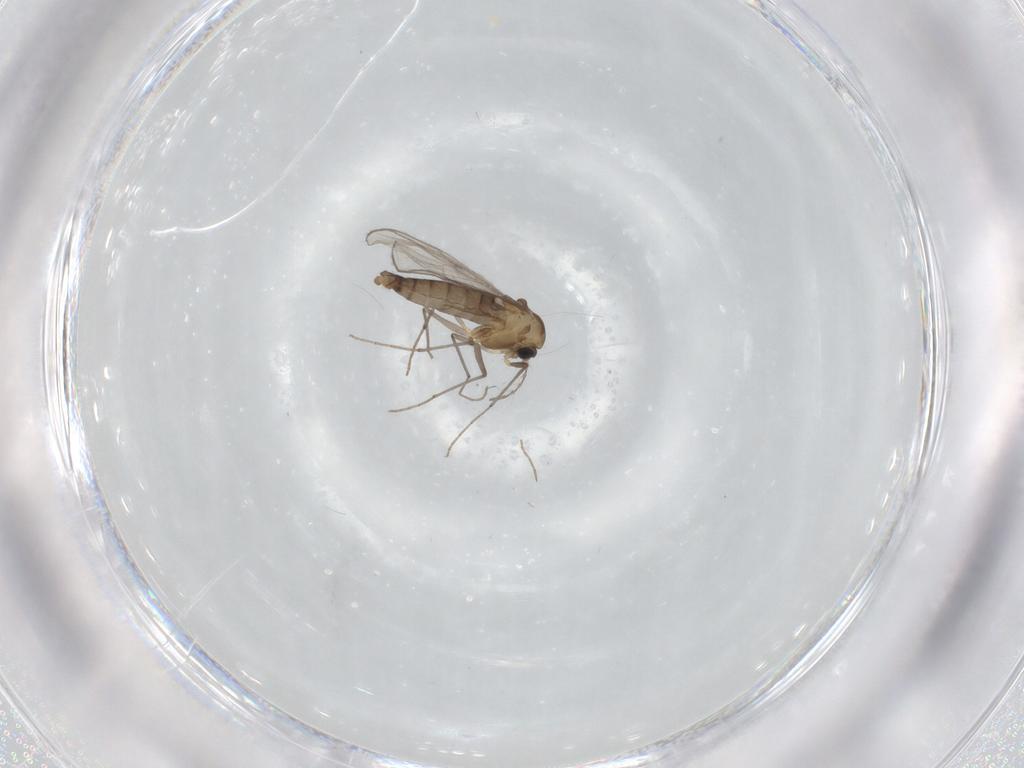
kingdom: Animalia
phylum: Arthropoda
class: Insecta
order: Diptera
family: Chironomidae
